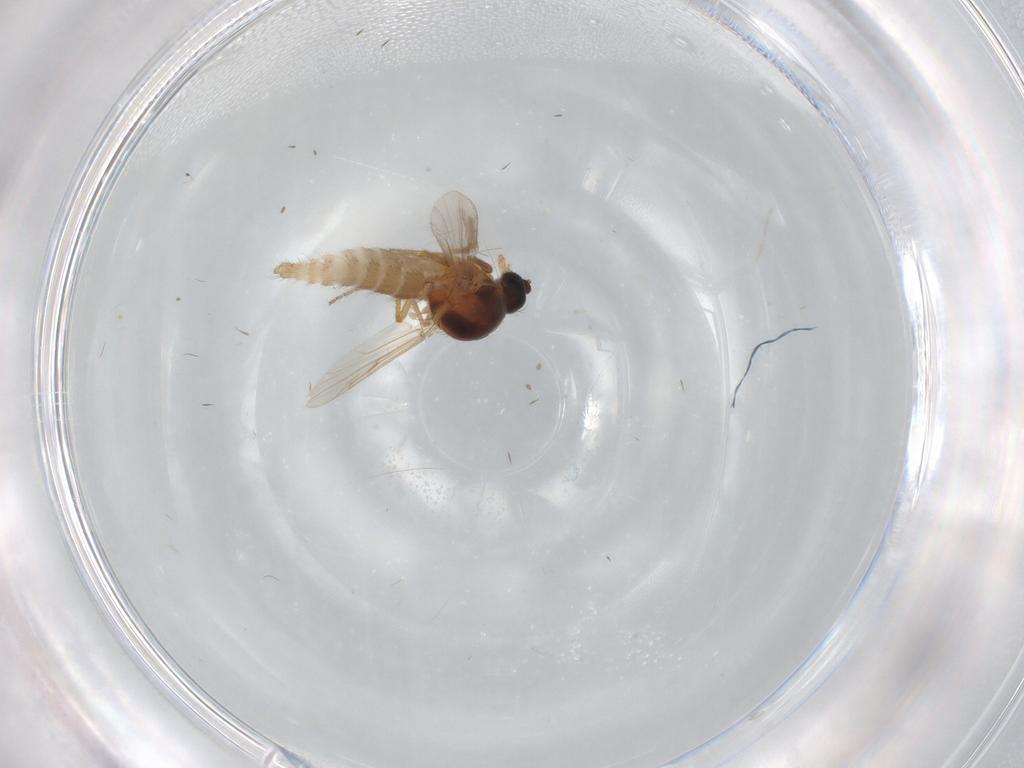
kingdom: Animalia
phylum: Arthropoda
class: Insecta
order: Diptera
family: Ceratopogonidae
